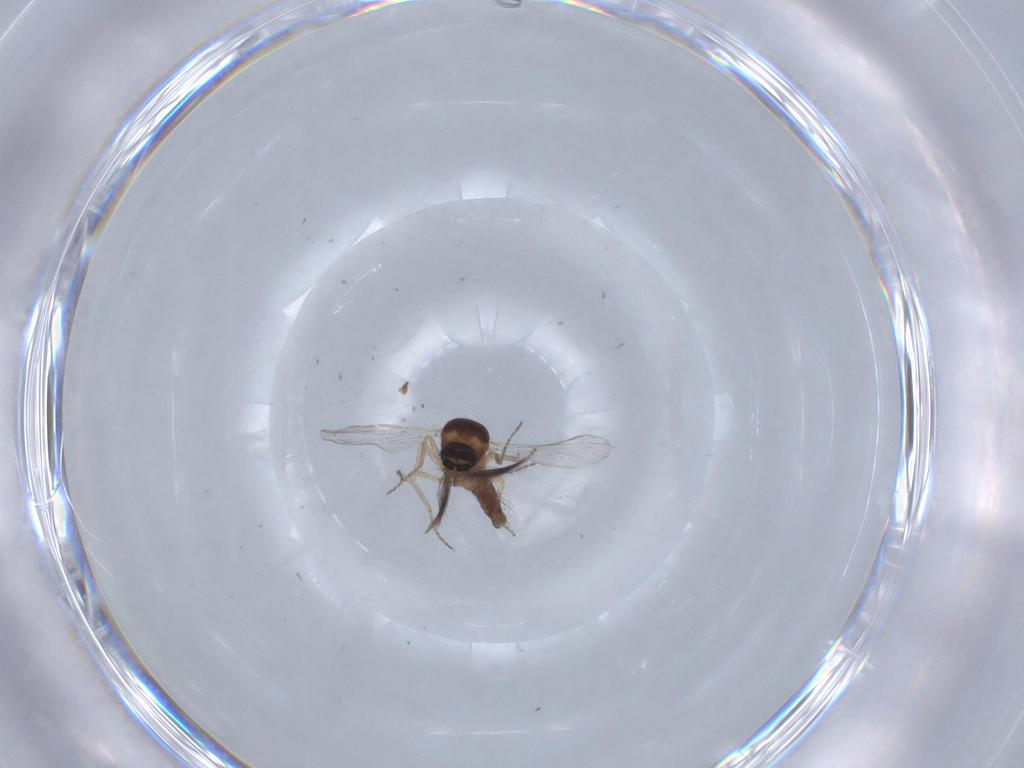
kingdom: Animalia
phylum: Arthropoda
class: Insecta
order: Diptera
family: Ceratopogonidae
